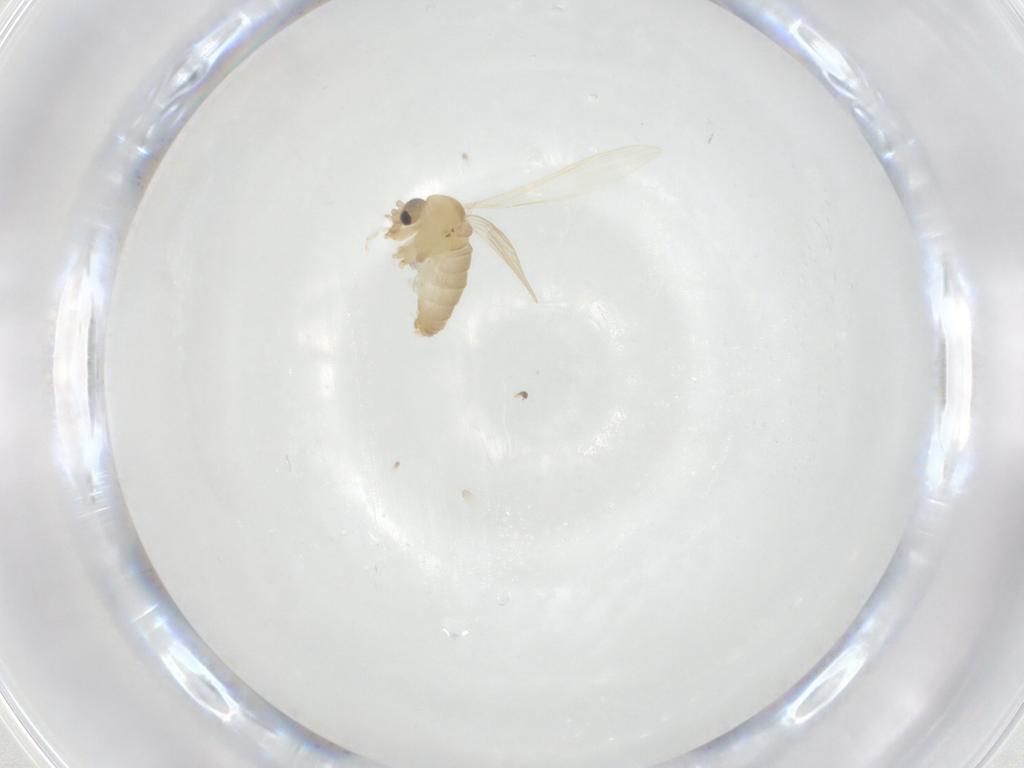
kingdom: Animalia
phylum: Arthropoda
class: Insecta
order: Diptera
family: Psychodidae
